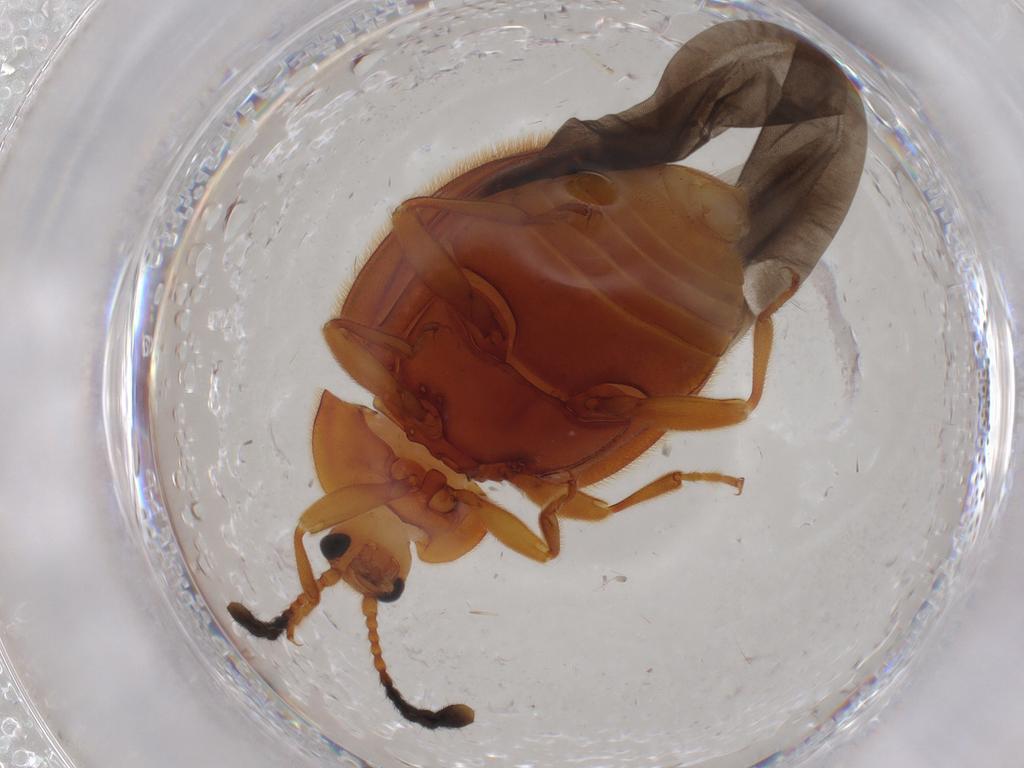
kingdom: Animalia
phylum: Arthropoda
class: Insecta
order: Coleoptera
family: Endomychidae
